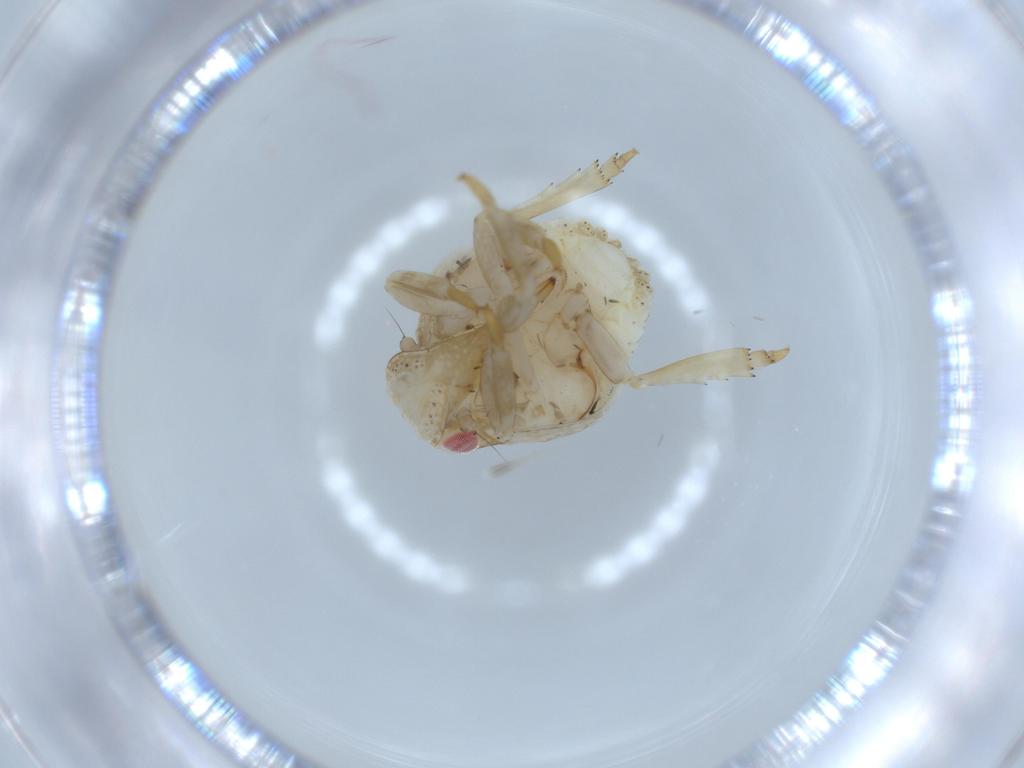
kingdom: Animalia
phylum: Arthropoda
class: Insecta
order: Hemiptera
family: Acanaloniidae
